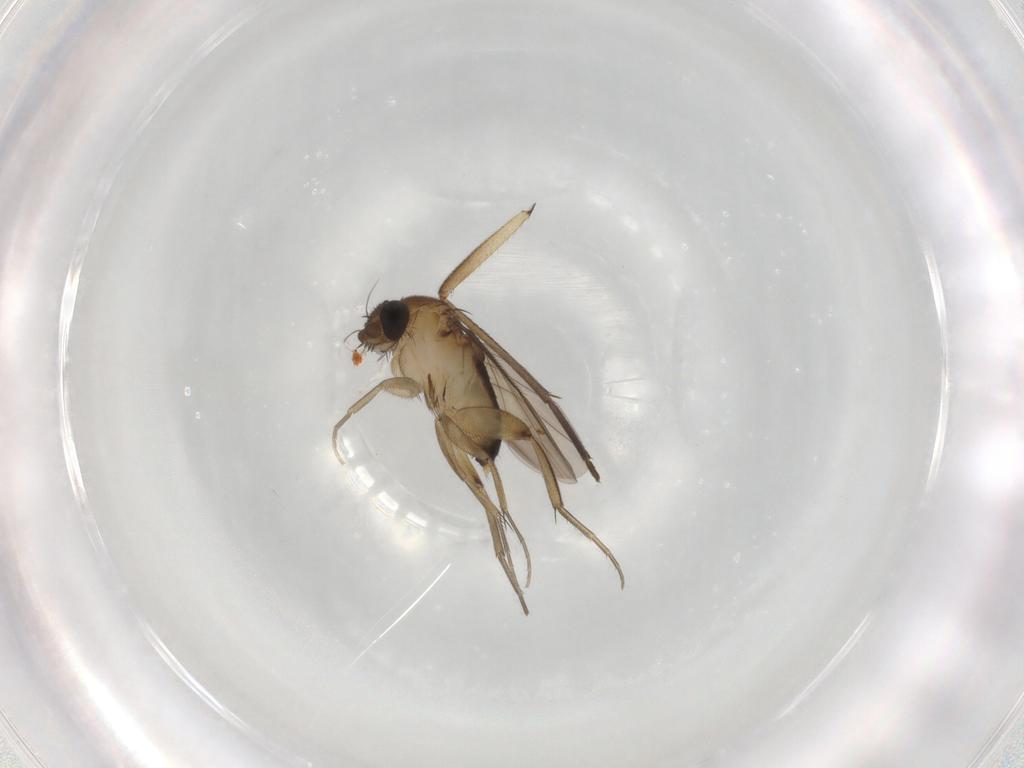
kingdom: Animalia
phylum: Arthropoda
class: Insecta
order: Diptera
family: Phoridae
